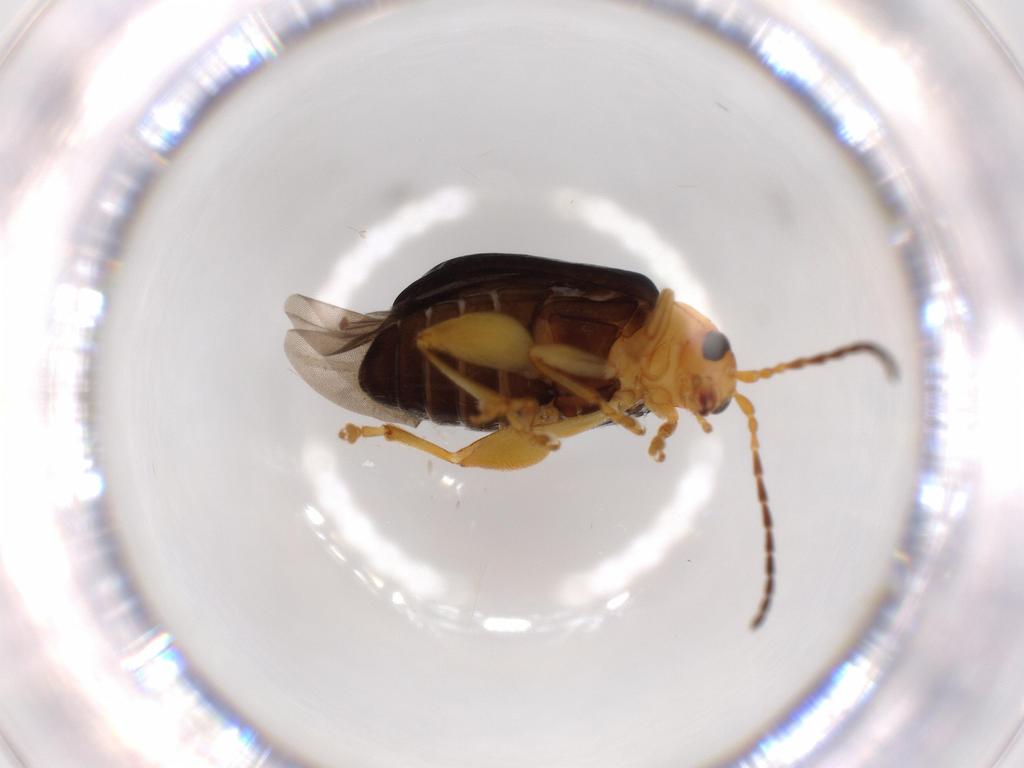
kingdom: Animalia
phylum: Arthropoda
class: Insecta
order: Coleoptera
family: Chrysomelidae
